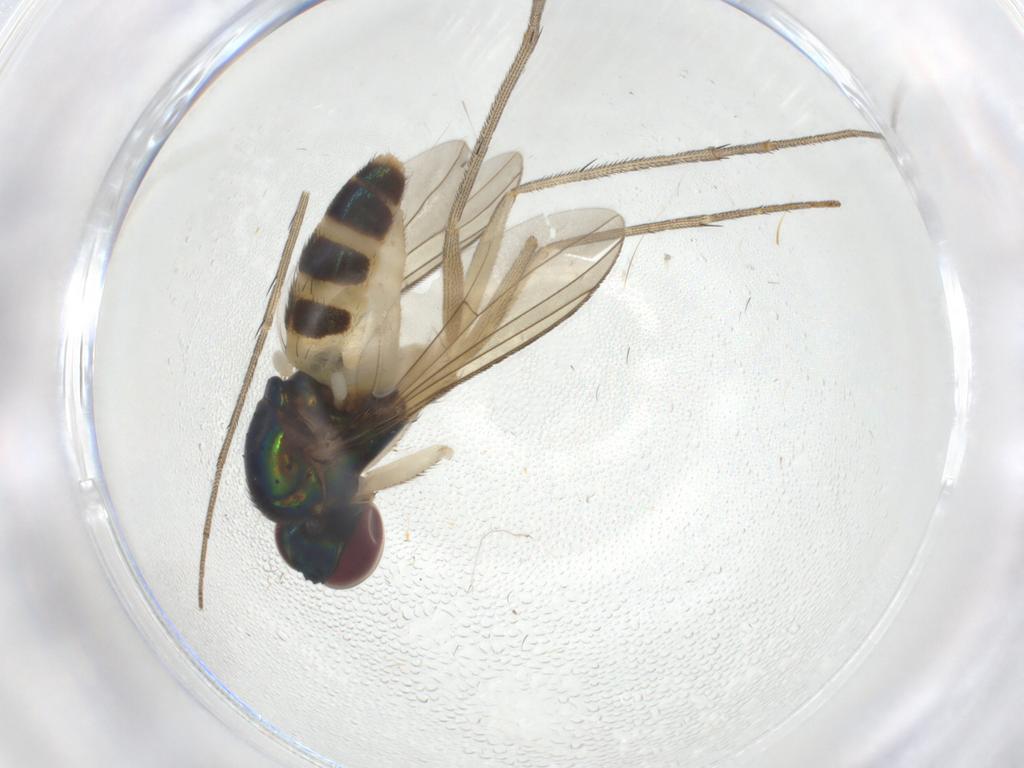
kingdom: Animalia
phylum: Arthropoda
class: Insecta
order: Diptera
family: Dolichopodidae
